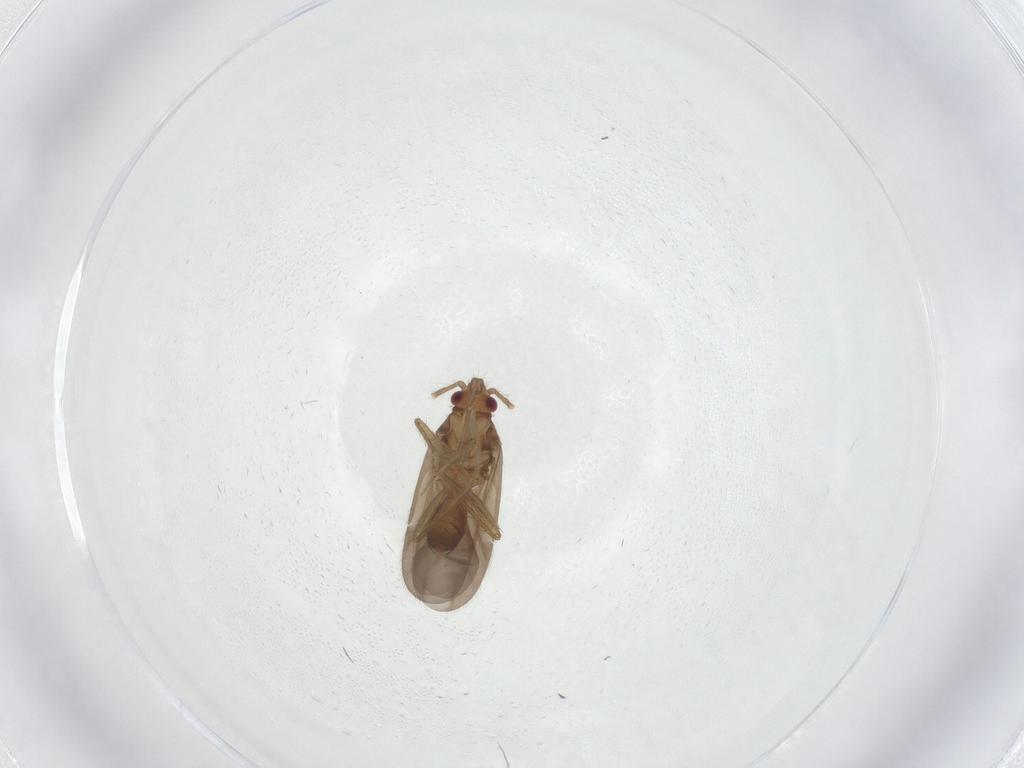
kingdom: Animalia
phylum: Arthropoda
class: Insecta
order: Hemiptera
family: Ceratocombidae
